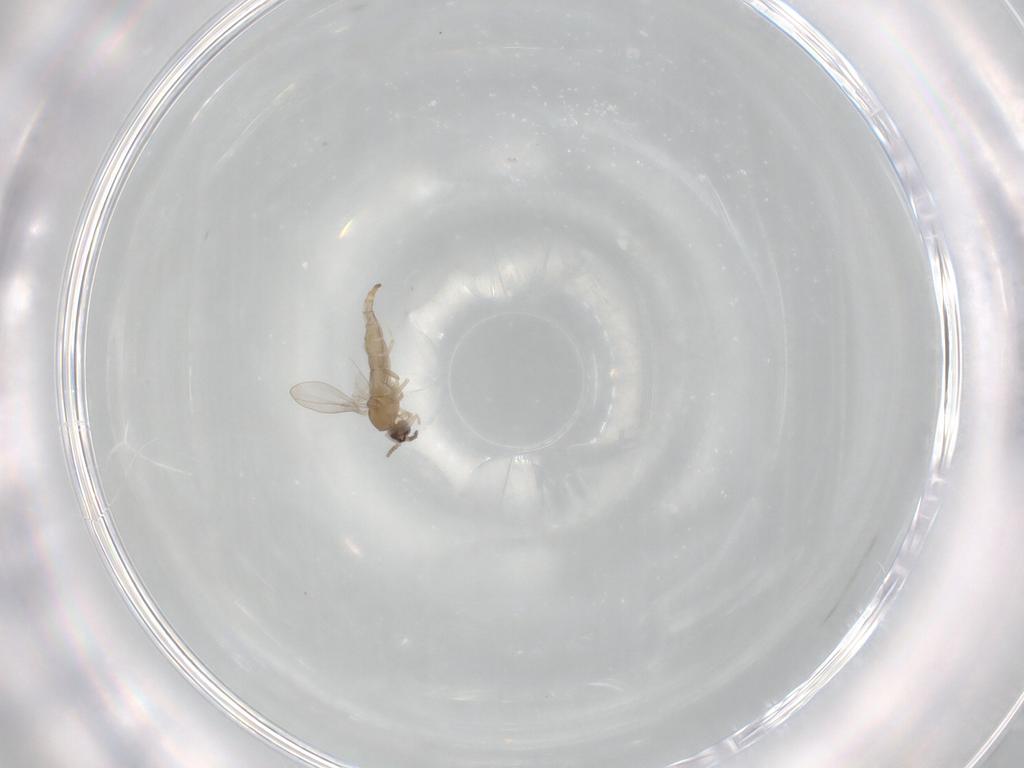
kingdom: Animalia
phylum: Arthropoda
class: Insecta
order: Diptera
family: Cecidomyiidae
